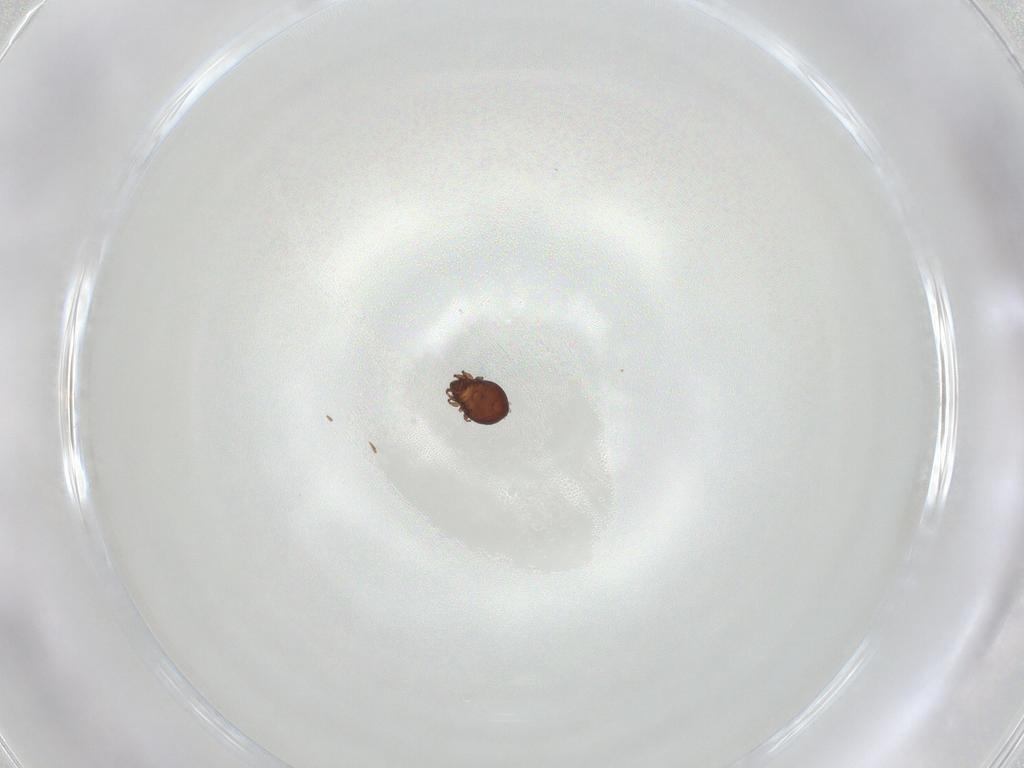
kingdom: Animalia
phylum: Arthropoda
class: Arachnida
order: Sarcoptiformes
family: Oribatulidae
